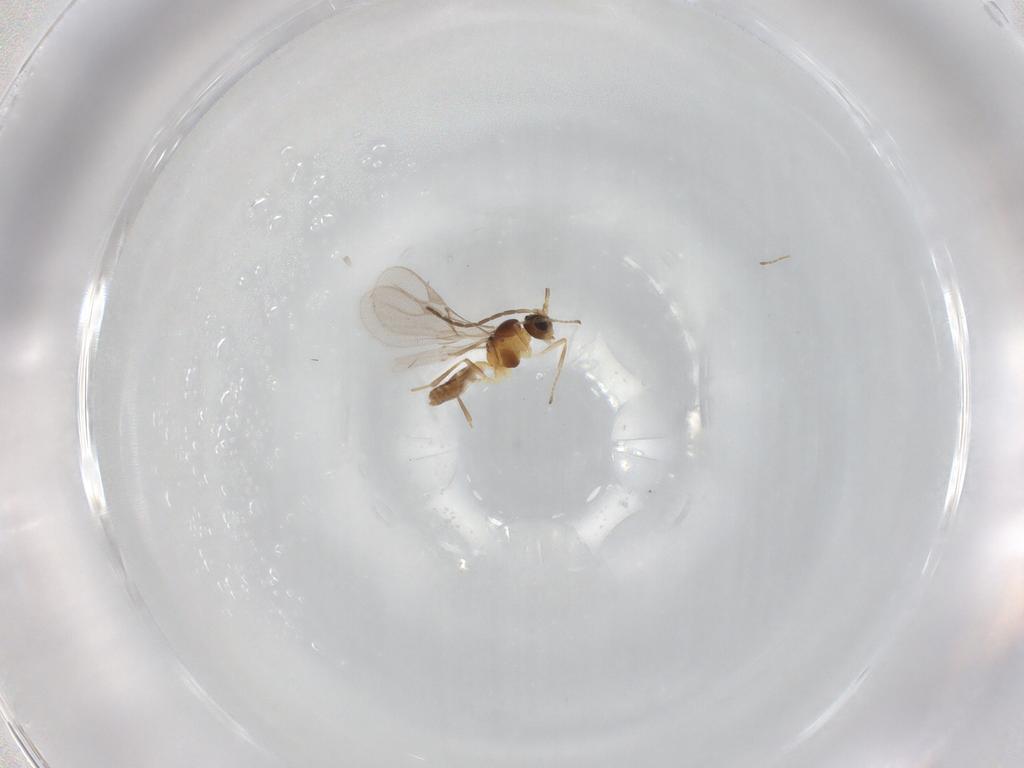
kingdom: Animalia
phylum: Arthropoda
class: Insecta
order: Hymenoptera
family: Braconidae
